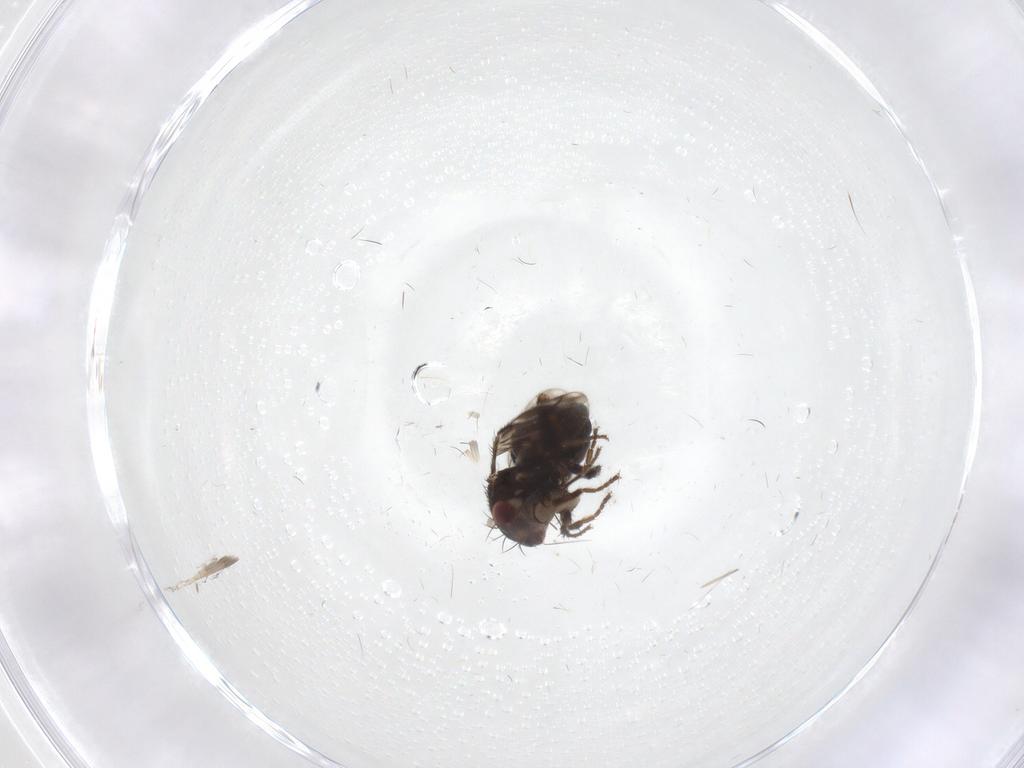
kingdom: Animalia
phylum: Arthropoda
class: Insecta
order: Diptera
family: Sphaeroceridae
